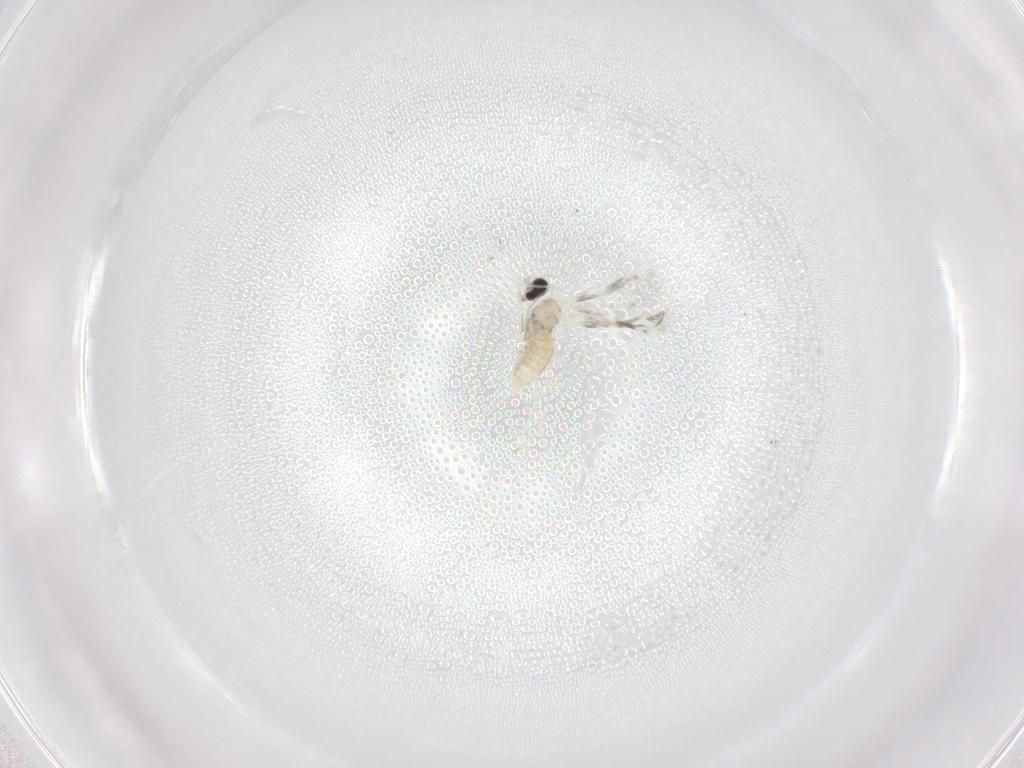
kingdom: Animalia
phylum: Arthropoda
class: Insecta
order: Diptera
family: Cecidomyiidae
